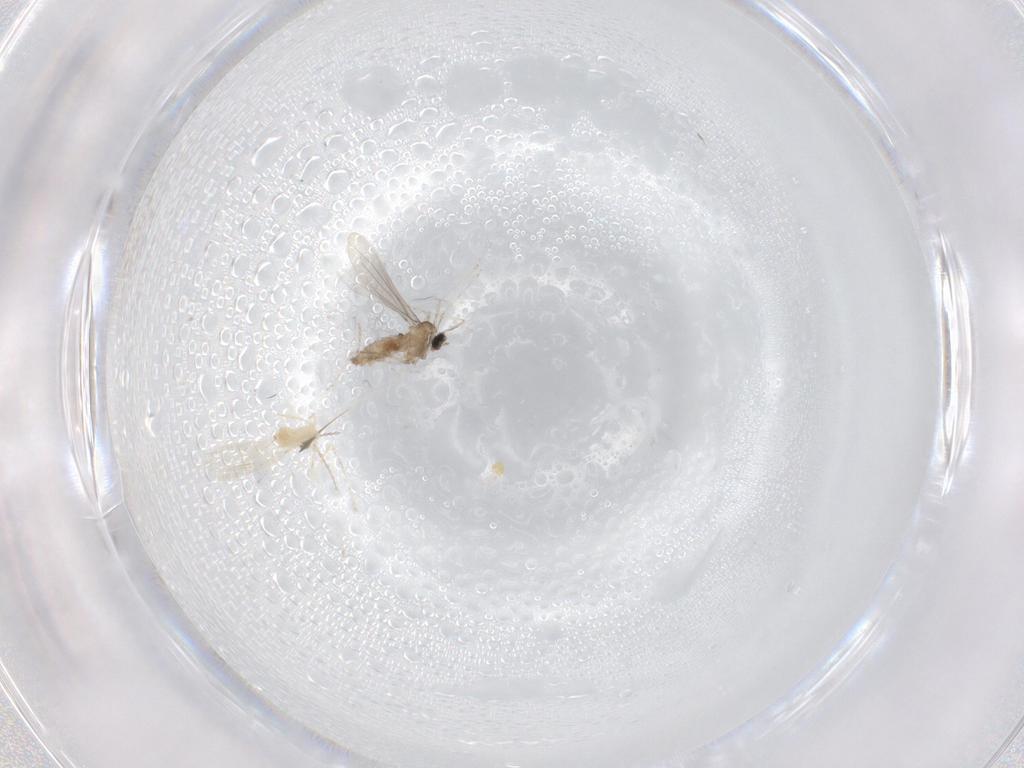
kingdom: Animalia
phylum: Arthropoda
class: Insecta
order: Diptera
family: Cecidomyiidae
